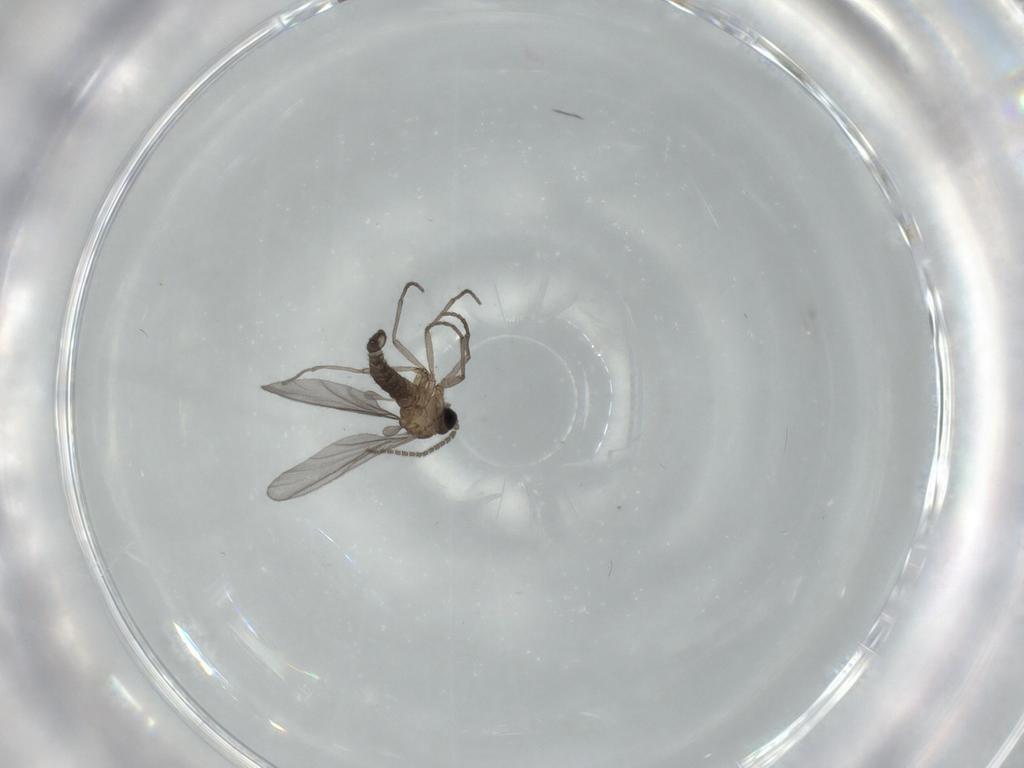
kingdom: Animalia
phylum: Arthropoda
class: Insecta
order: Diptera
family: Sciaridae
